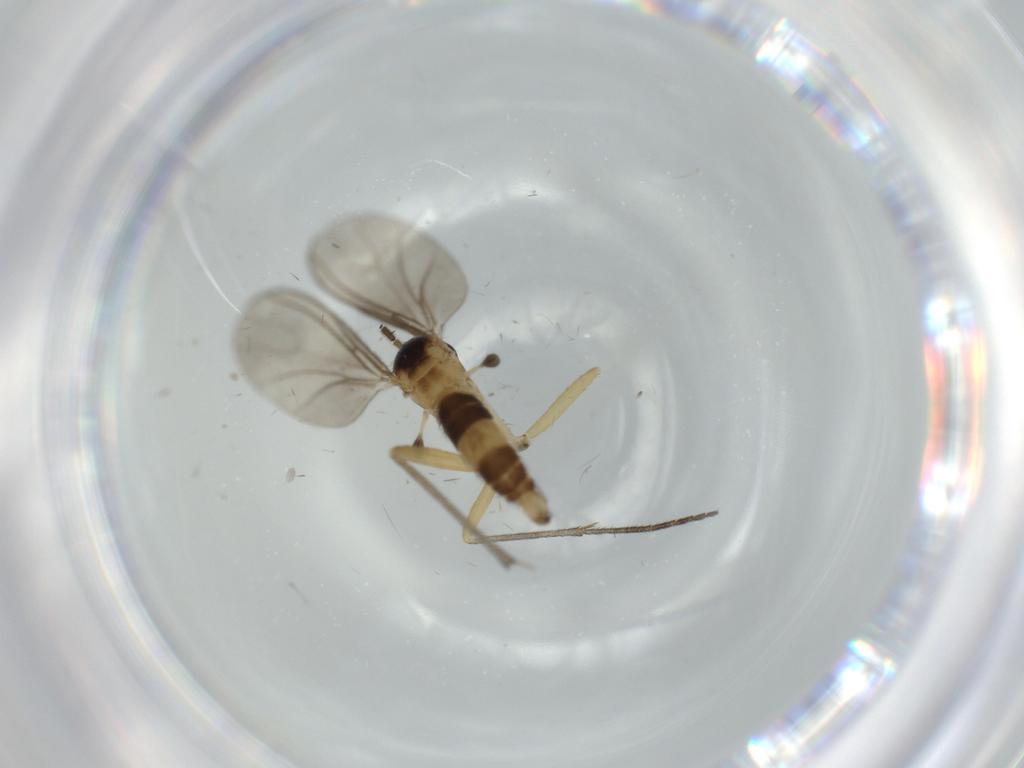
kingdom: Animalia
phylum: Arthropoda
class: Insecta
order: Diptera
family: Sciaridae
